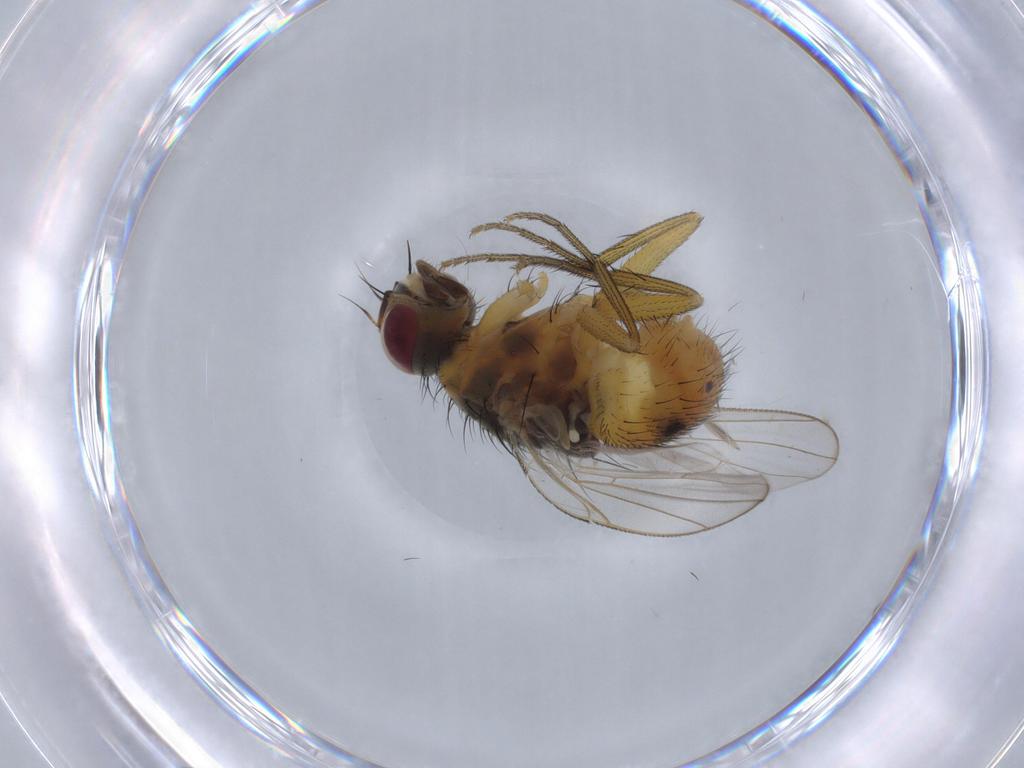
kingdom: Animalia
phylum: Arthropoda
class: Insecta
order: Diptera
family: Muscidae
